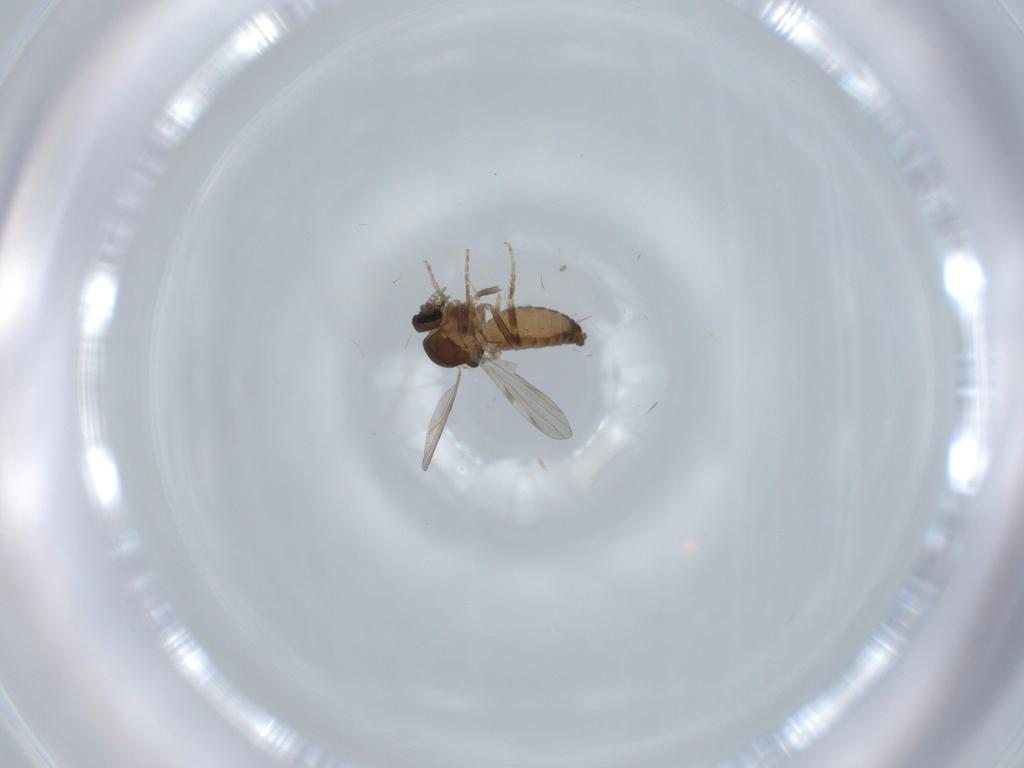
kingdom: Animalia
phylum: Arthropoda
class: Insecta
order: Diptera
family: Ceratopogonidae
